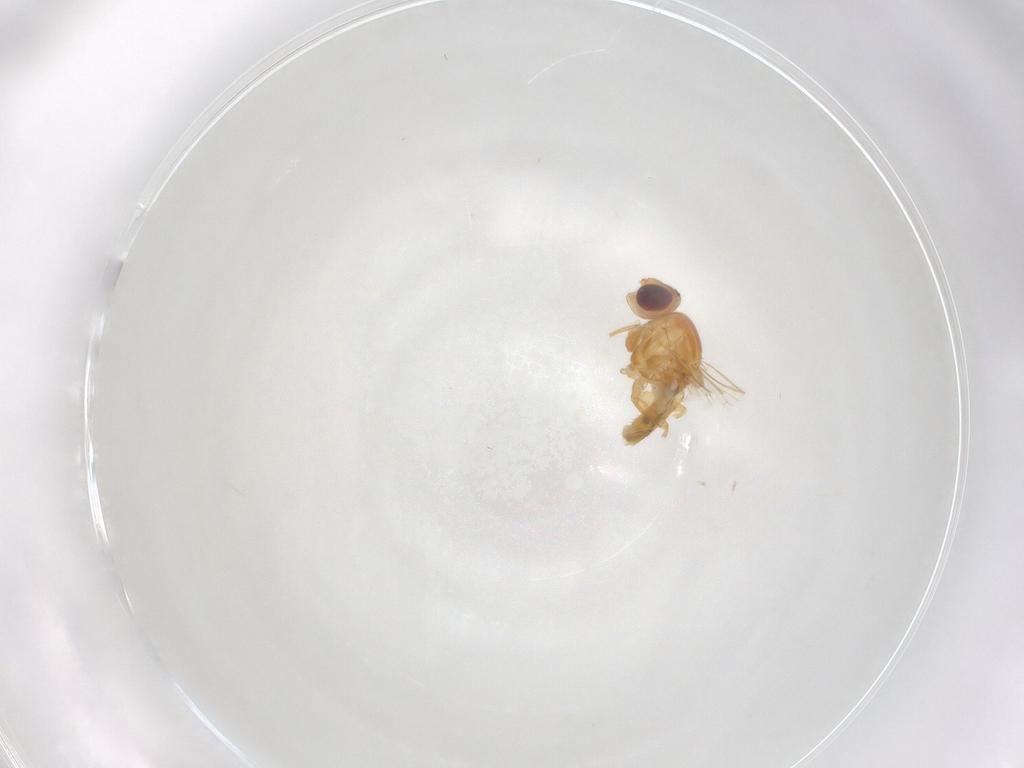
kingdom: Animalia
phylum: Arthropoda
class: Insecta
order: Diptera
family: Chloropidae
